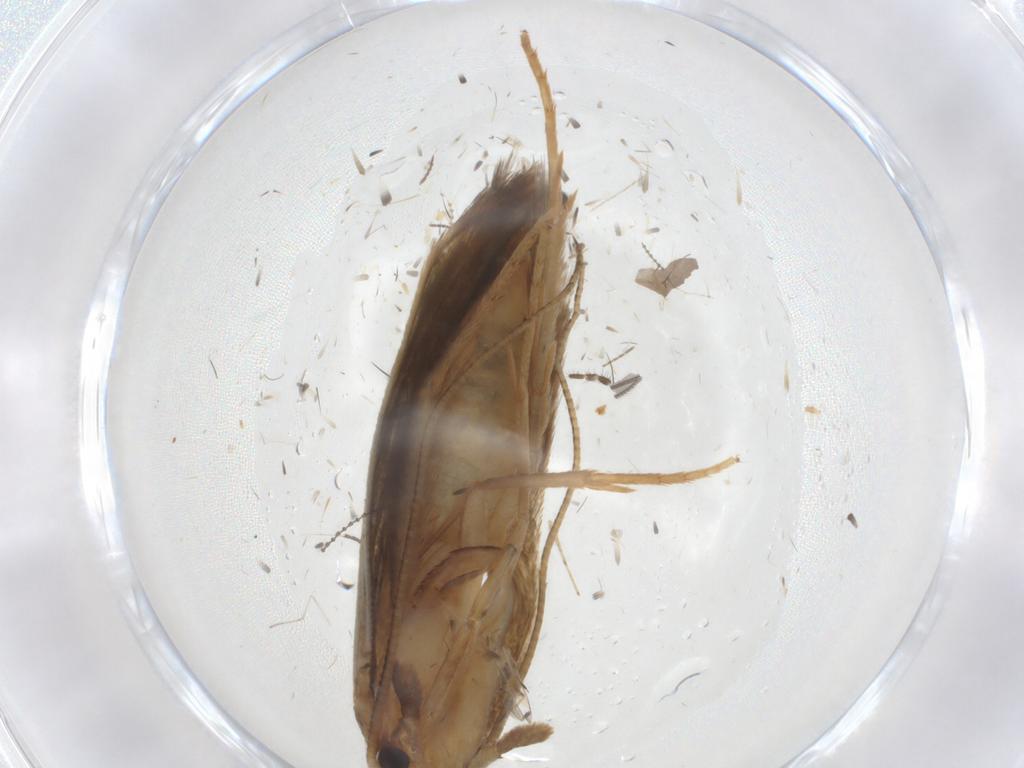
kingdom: Animalia
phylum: Arthropoda
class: Insecta
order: Lepidoptera
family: Tineidae
